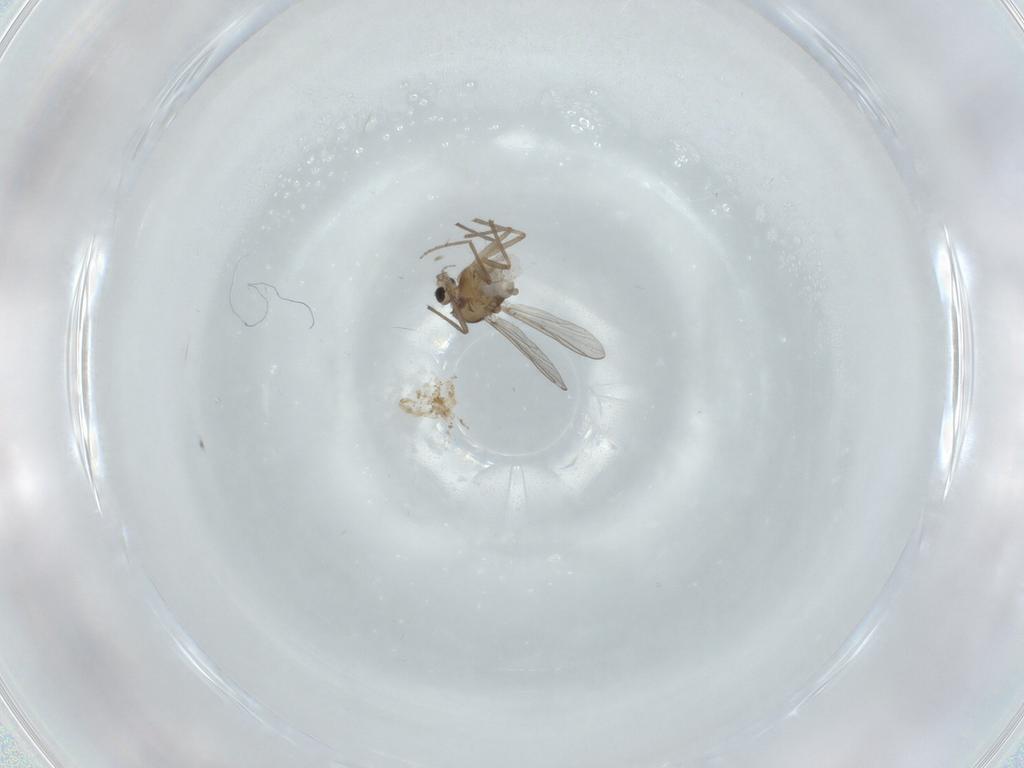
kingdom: Animalia
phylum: Arthropoda
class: Insecta
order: Diptera
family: Chironomidae
